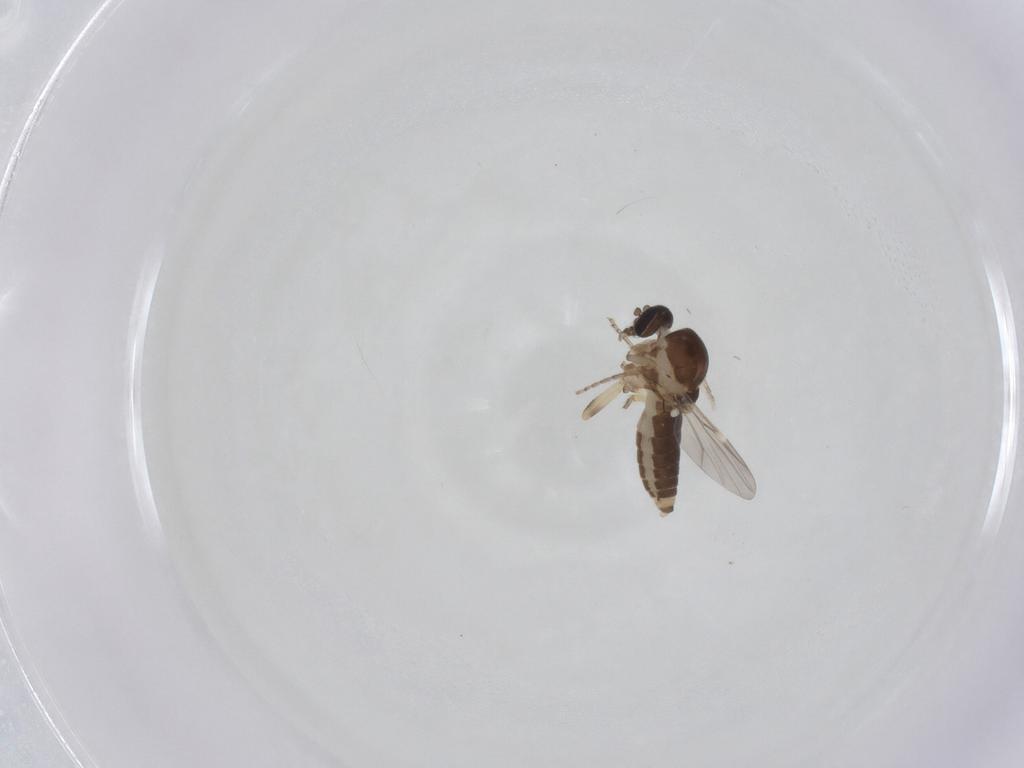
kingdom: Animalia
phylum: Arthropoda
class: Insecta
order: Diptera
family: Ceratopogonidae
